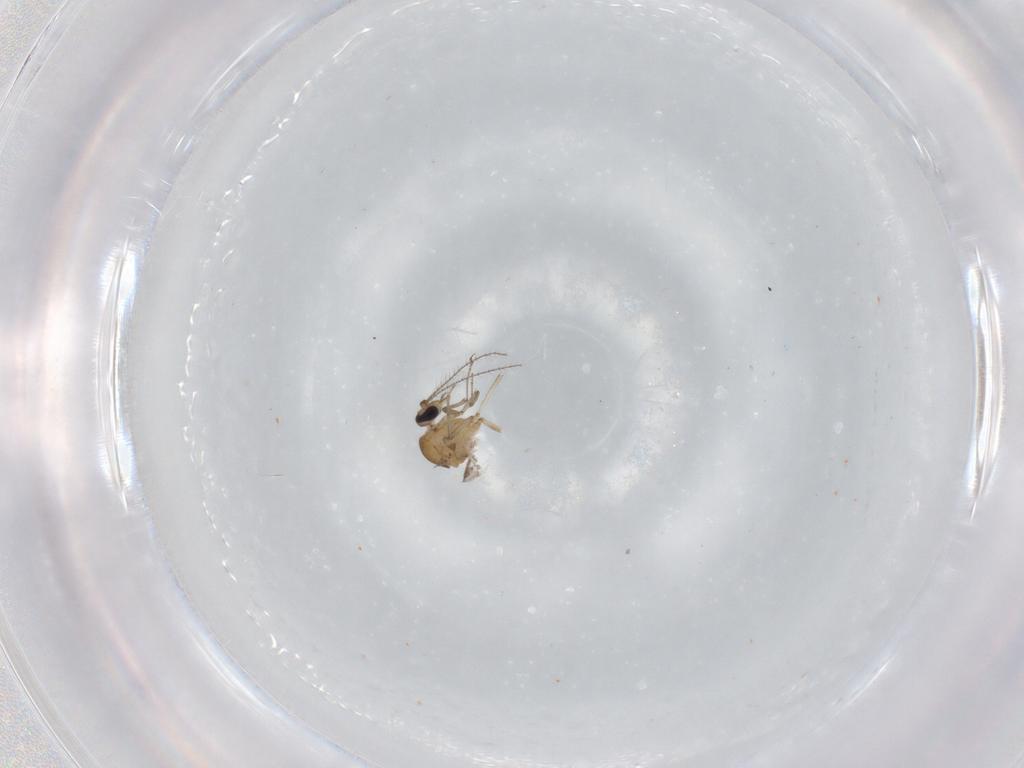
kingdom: Animalia
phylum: Arthropoda
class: Insecta
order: Diptera
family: Ceratopogonidae
